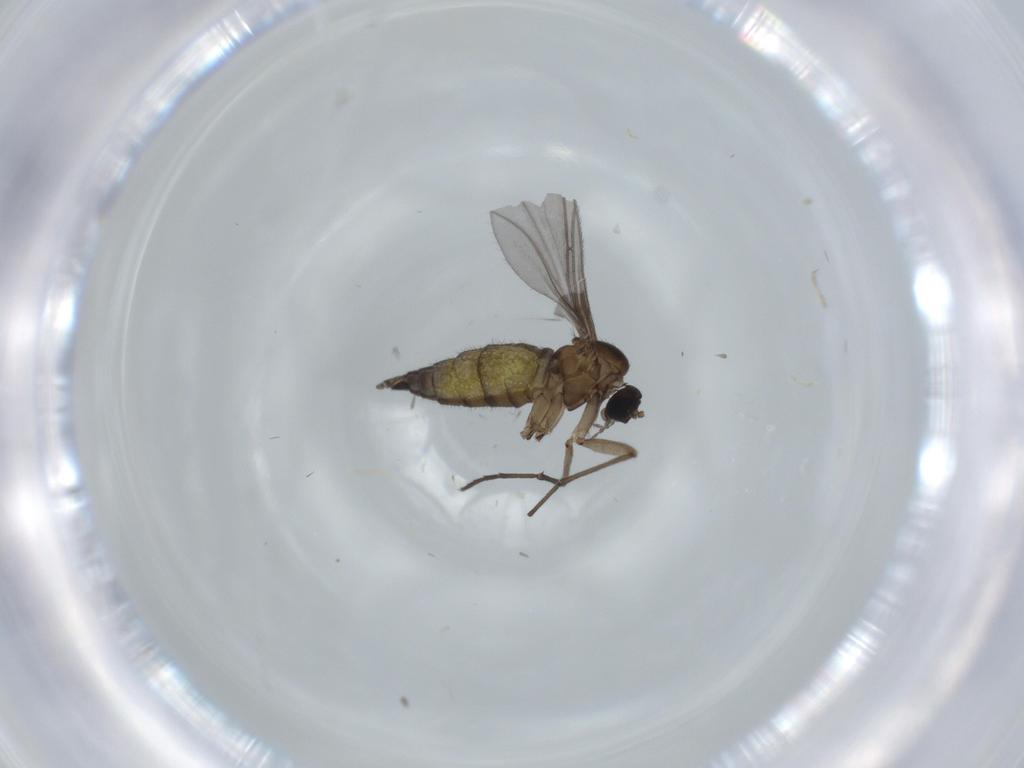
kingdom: Animalia
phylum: Arthropoda
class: Insecta
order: Diptera
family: Sciaridae
